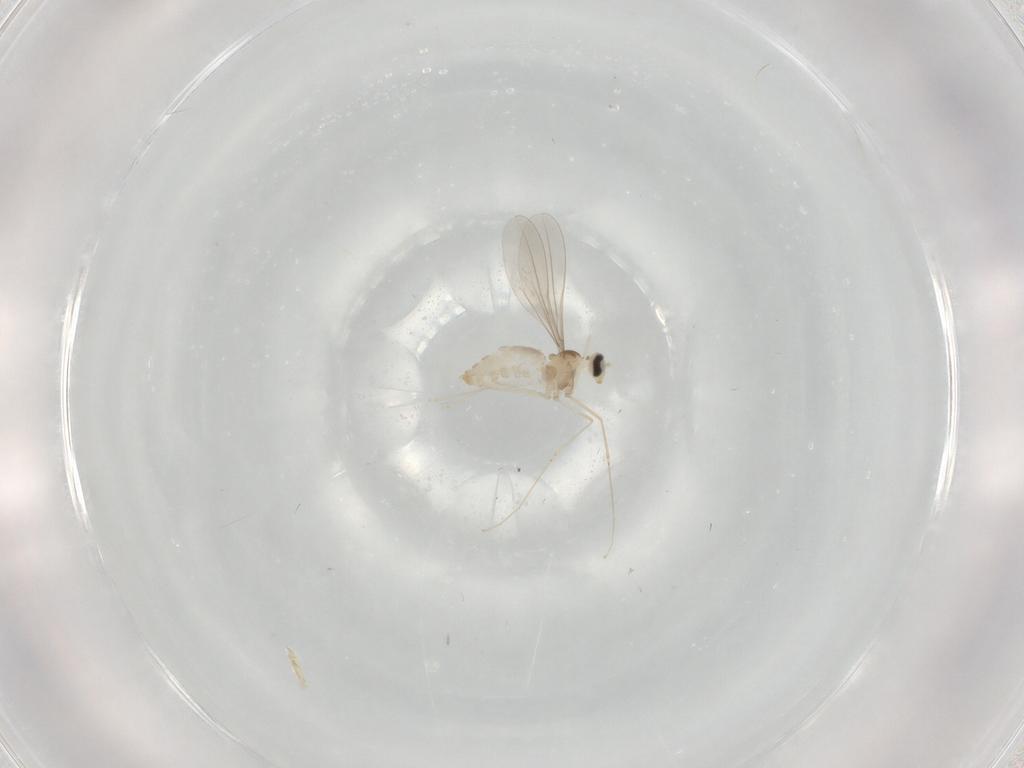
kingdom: Animalia
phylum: Arthropoda
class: Insecta
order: Diptera
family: Cecidomyiidae
